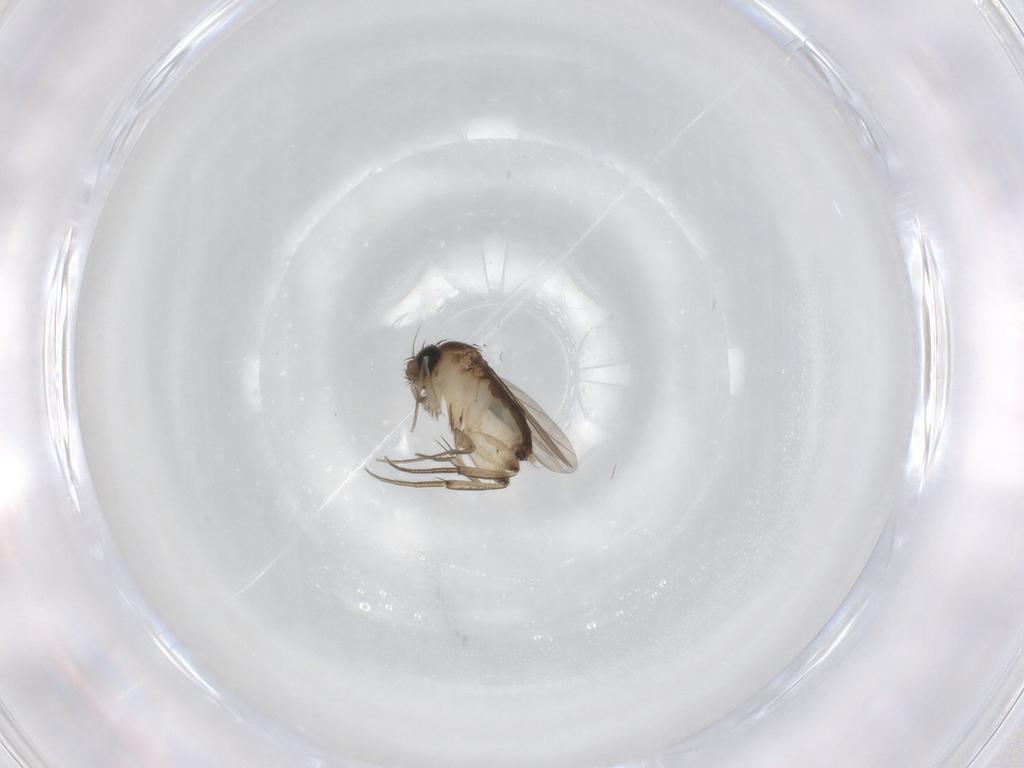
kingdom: Animalia
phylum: Arthropoda
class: Insecta
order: Diptera
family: Phoridae
